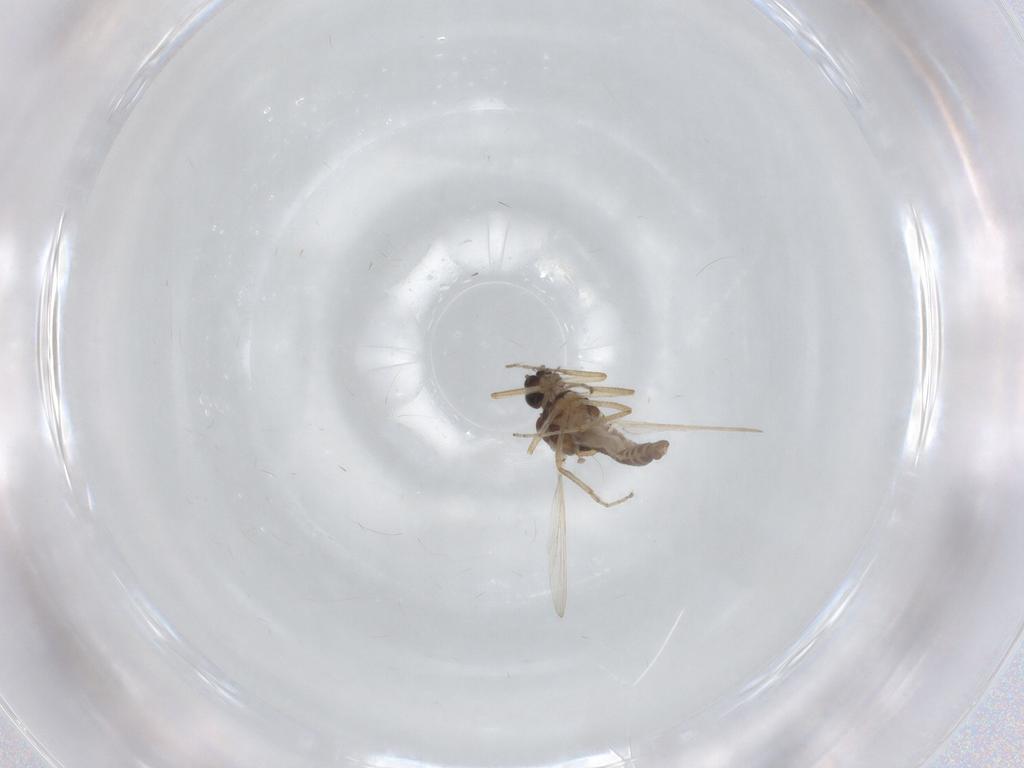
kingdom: Animalia
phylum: Arthropoda
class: Insecta
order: Diptera
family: Ceratopogonidae
